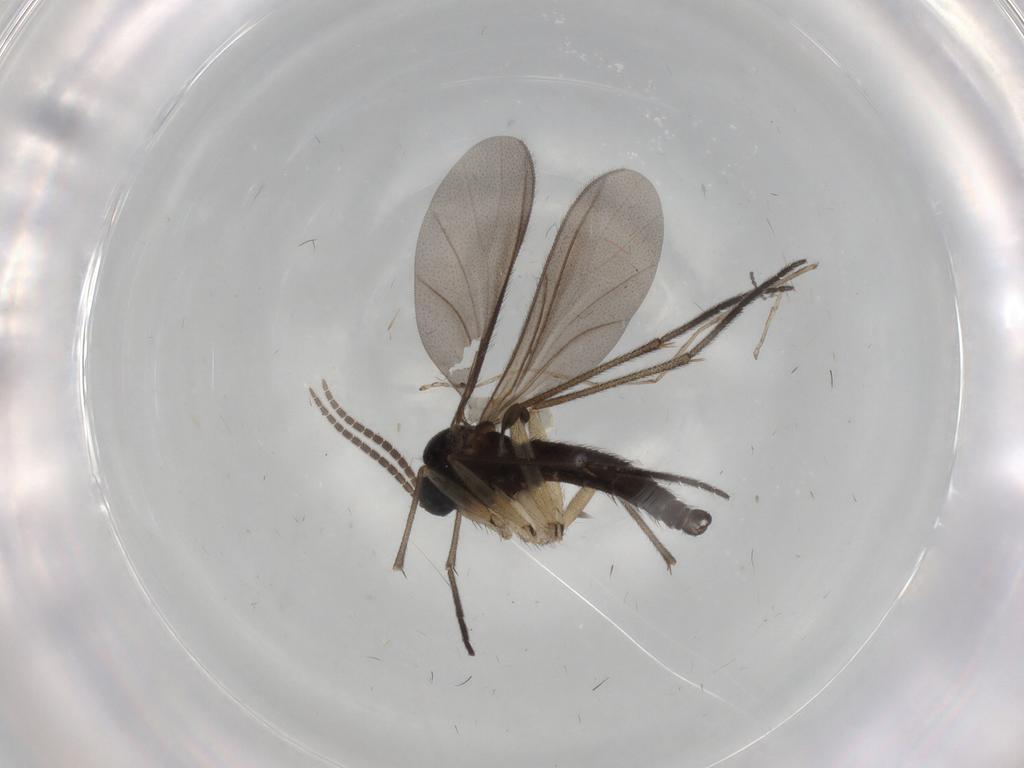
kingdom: Animalia
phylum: Arthropoda
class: Insecta
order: Diptera
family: Sciaridae
